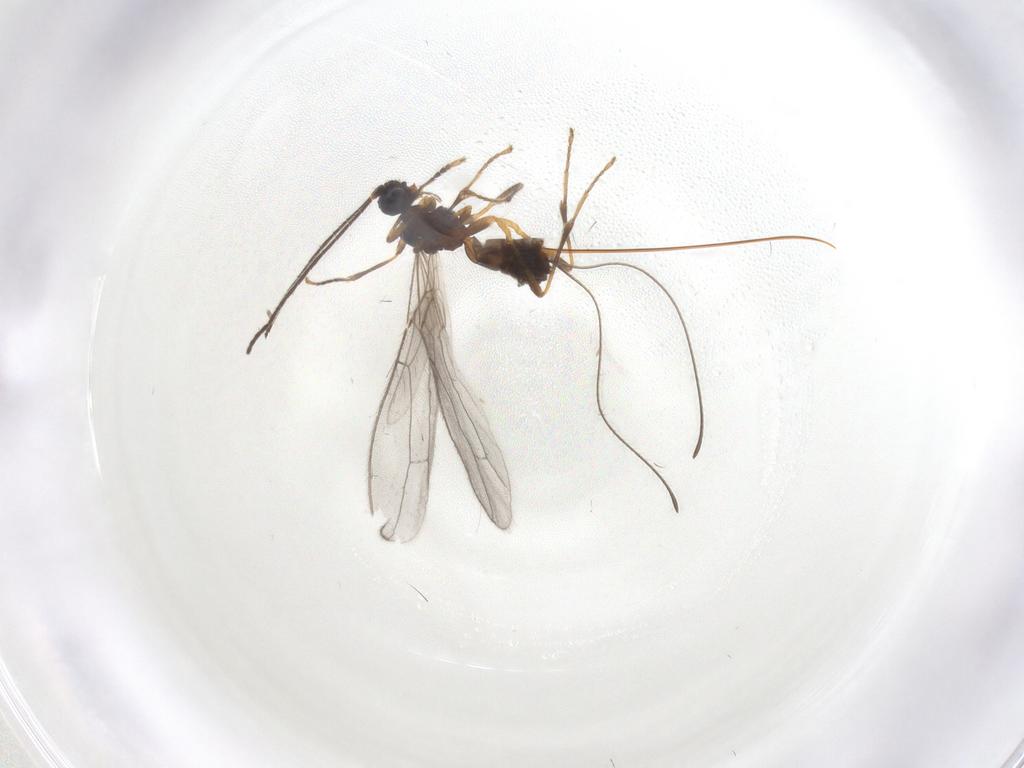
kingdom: Animalia
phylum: Arthropoda
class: Insecta
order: Hymenoptera
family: Braconidae
